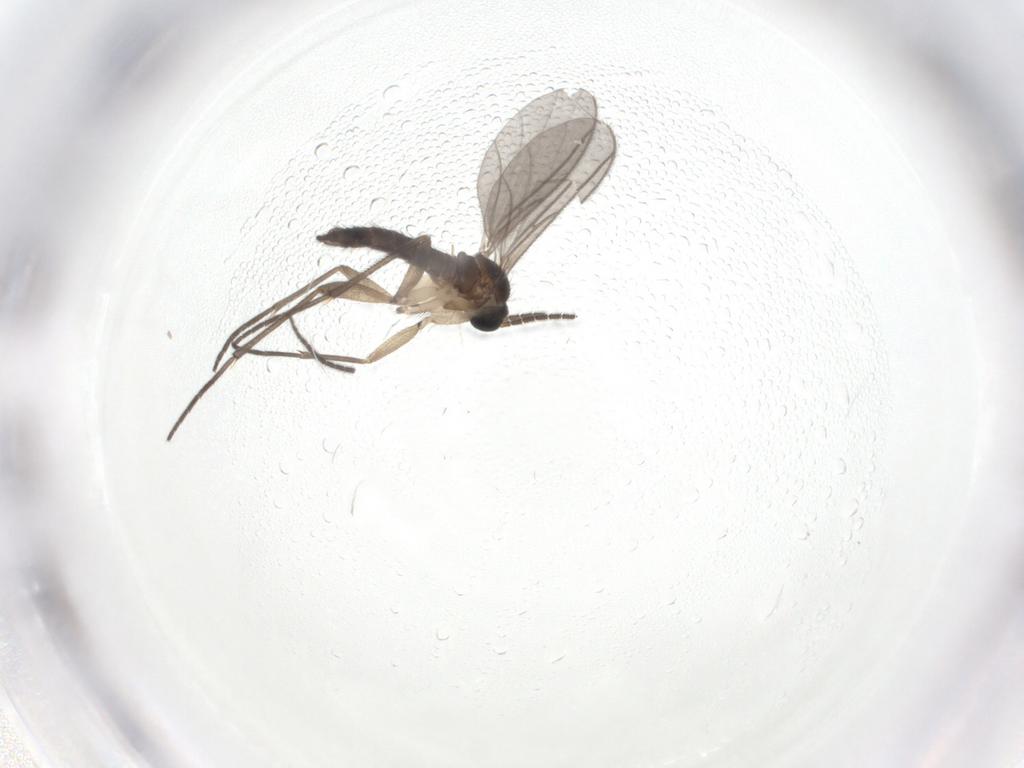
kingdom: Animalia
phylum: Arthropoda
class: Insecta
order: Diptera
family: Sciaridae
